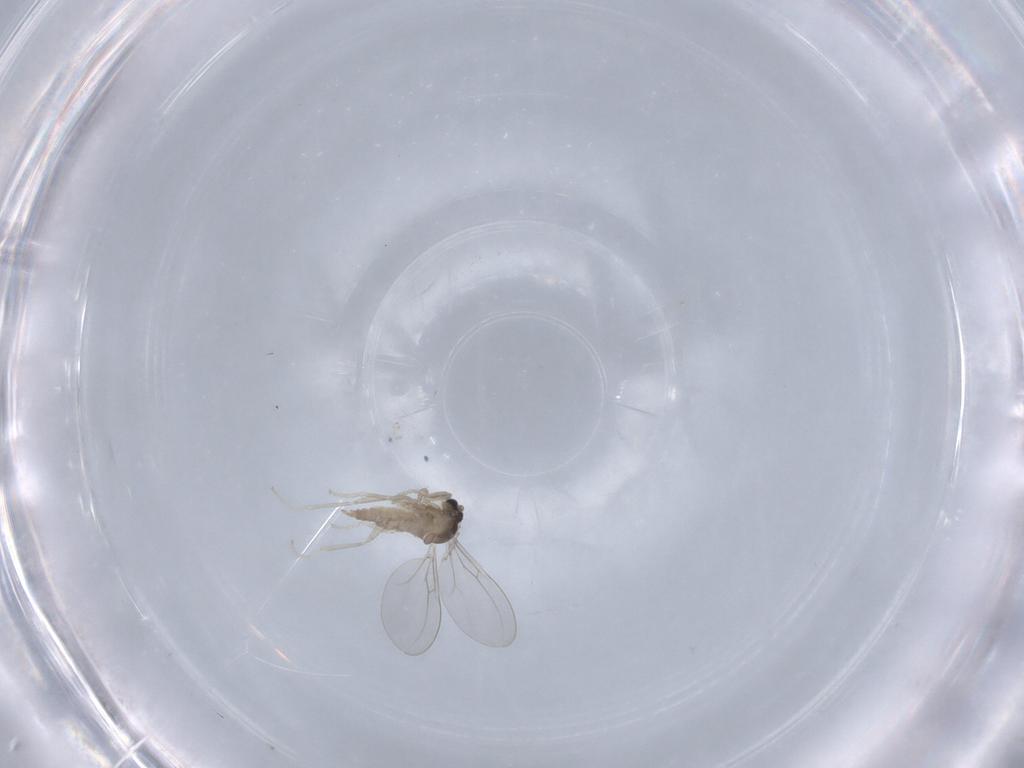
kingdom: Animalia
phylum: Arthropoda
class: Insecta
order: Diptera
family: Cecidomyiidae
